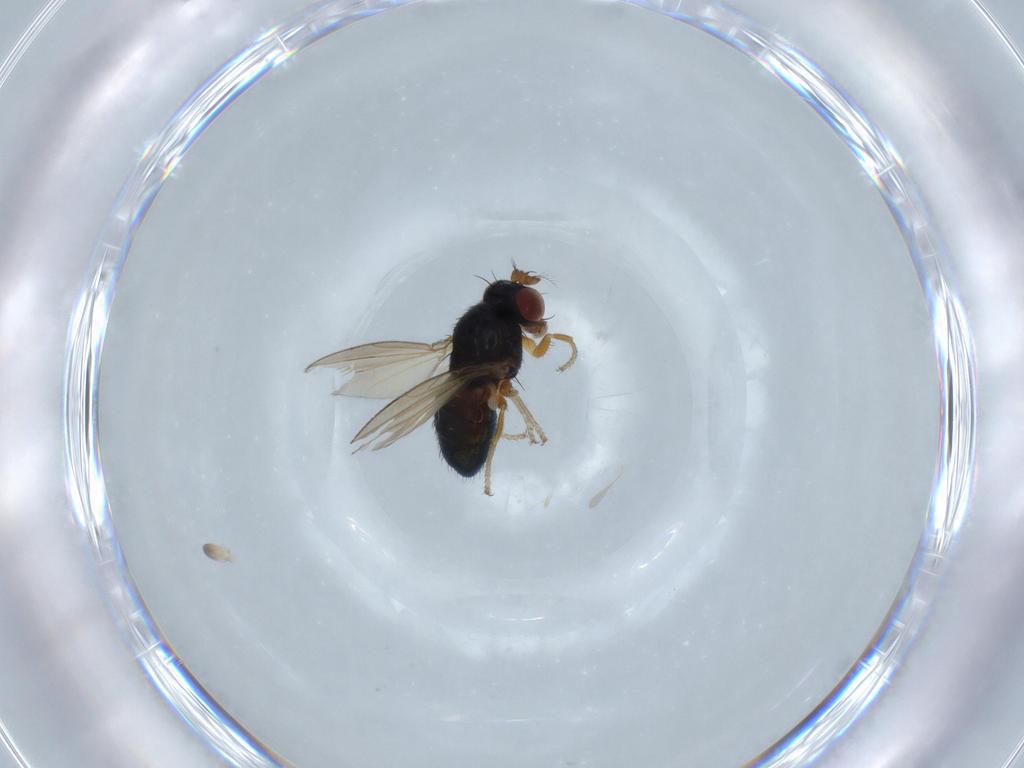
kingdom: Animalia
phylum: Arthropoda
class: Insecta
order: Diptera
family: Ephydridae
